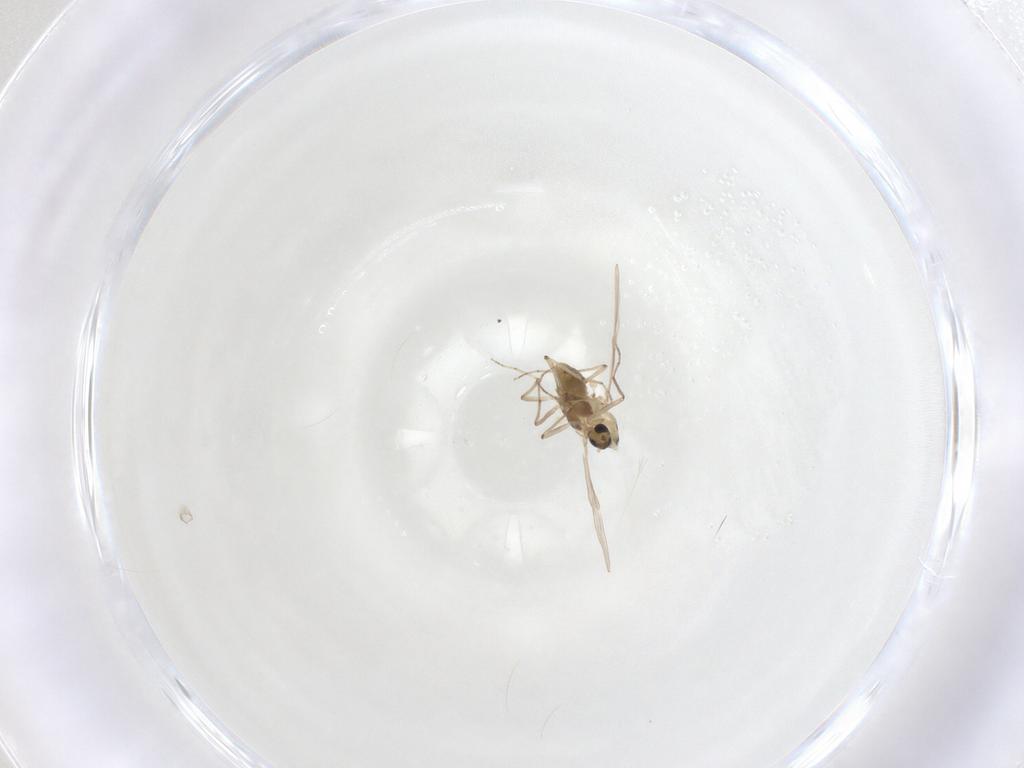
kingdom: Animalia
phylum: Arthropoda
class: Insecta
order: Diptera
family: Chironomidae
